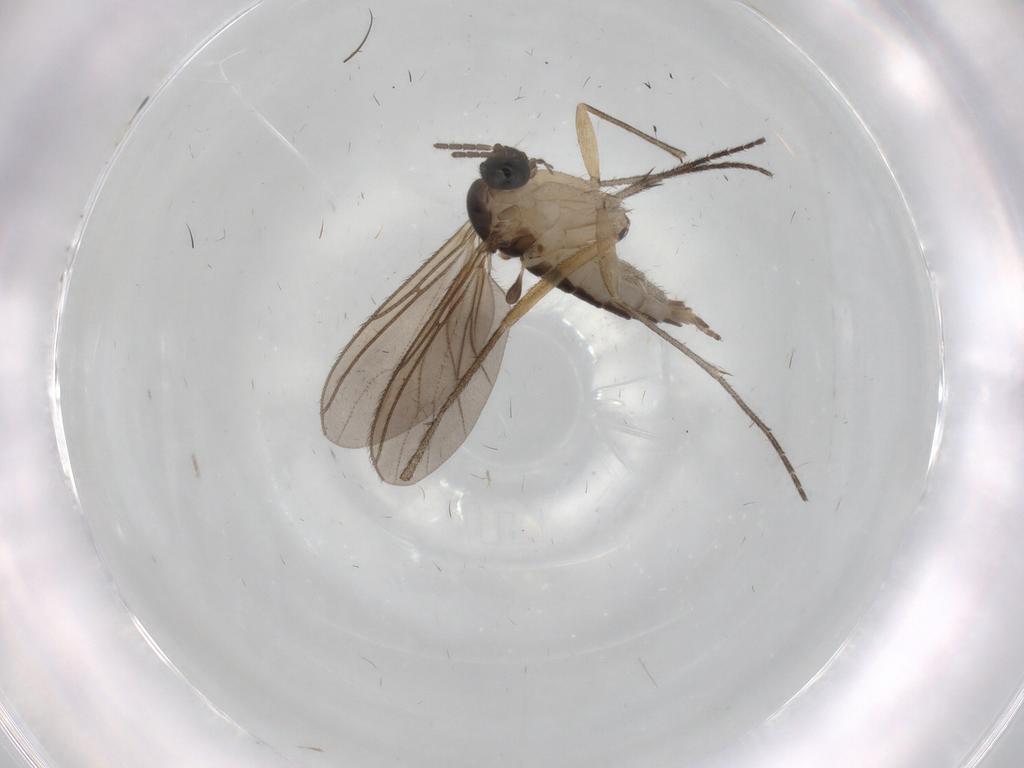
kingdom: Animalia
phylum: Arthropoda
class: Insecta
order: Diptera
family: Sciaridae
